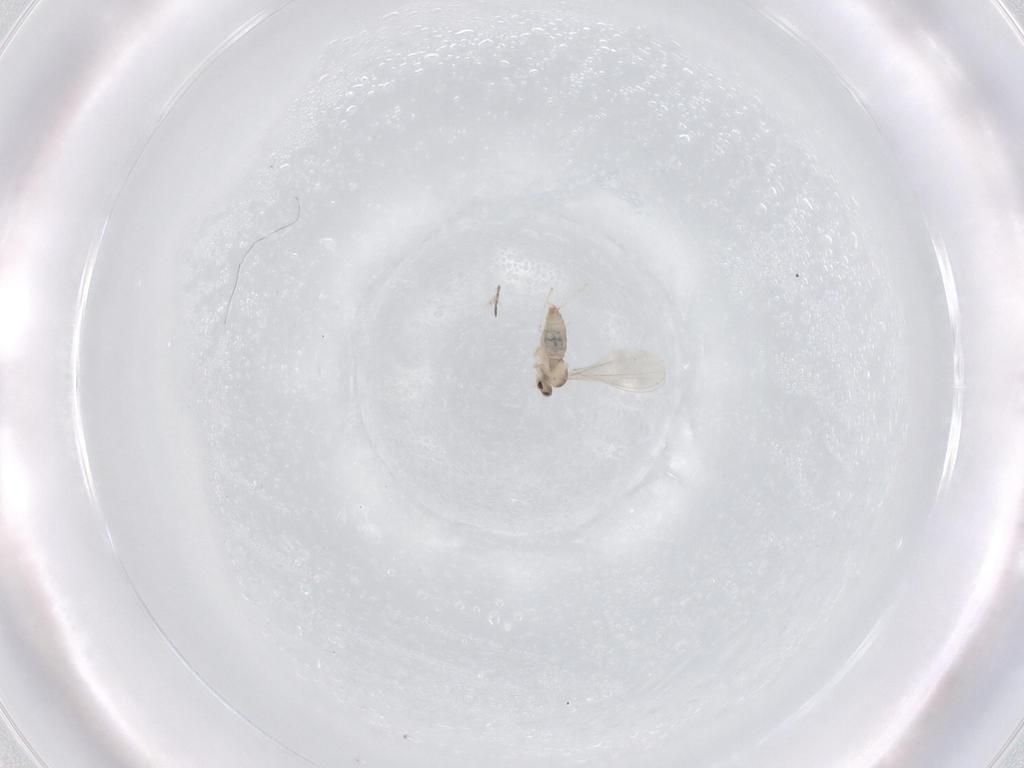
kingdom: Animalia
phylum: Arthropoda
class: Insecta
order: Diptera
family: Cecidomyiidae
